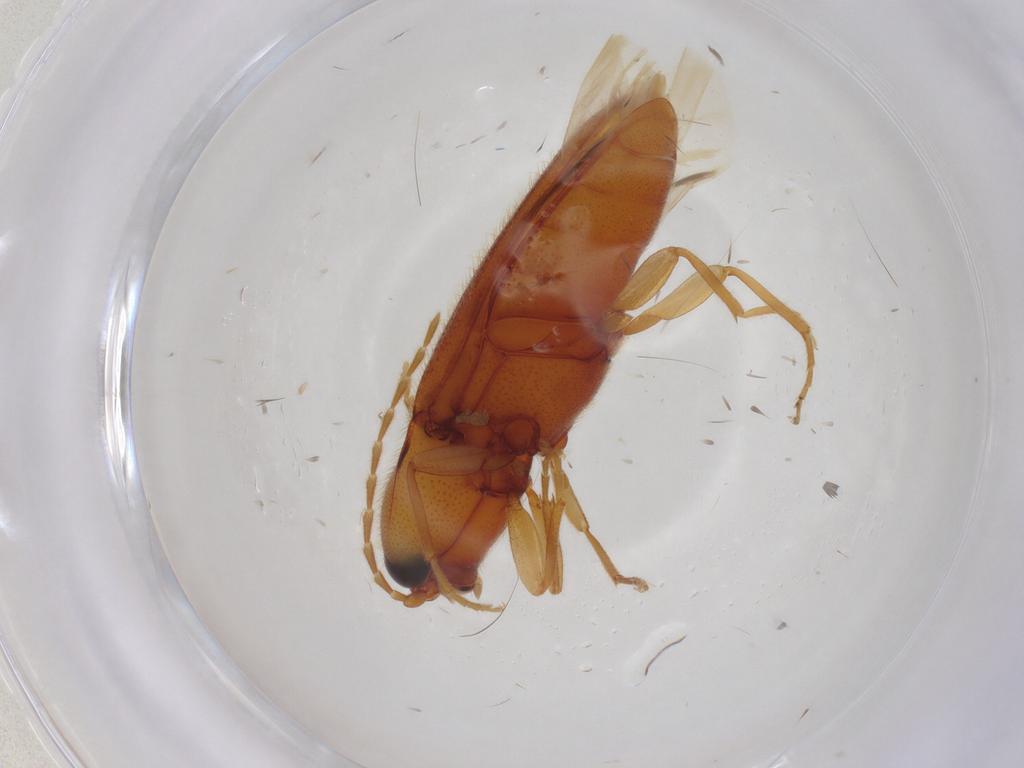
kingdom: Animalia
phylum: Arthropoda
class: Insecta
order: Coleoptera
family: Elateridae
